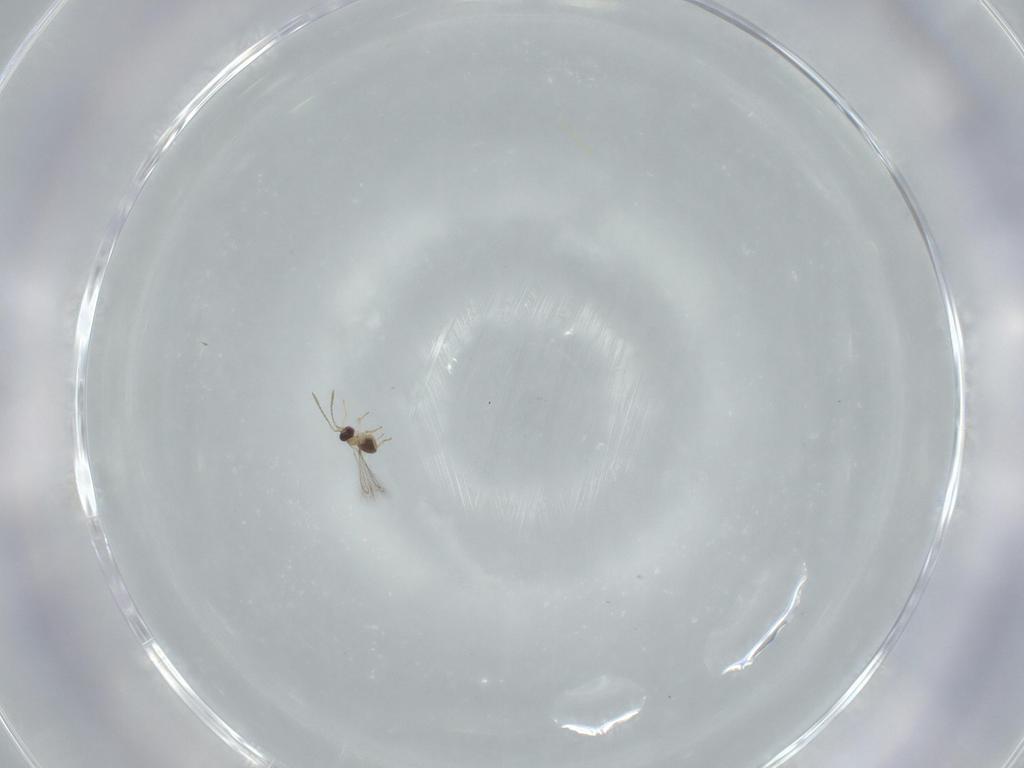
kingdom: Animalia
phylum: Arthropoda
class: Insecta
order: Hymenoptera
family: Mymaridae
